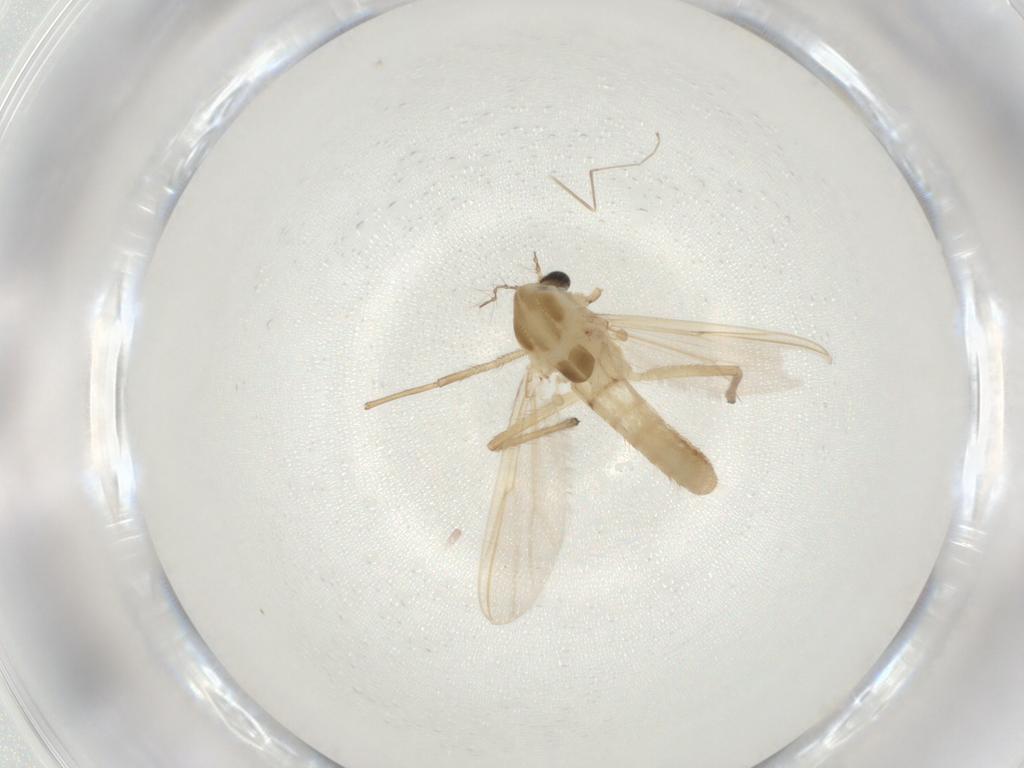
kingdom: Animalia
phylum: Arthropoda
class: Insecta
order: Diptera
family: Chironomidae
